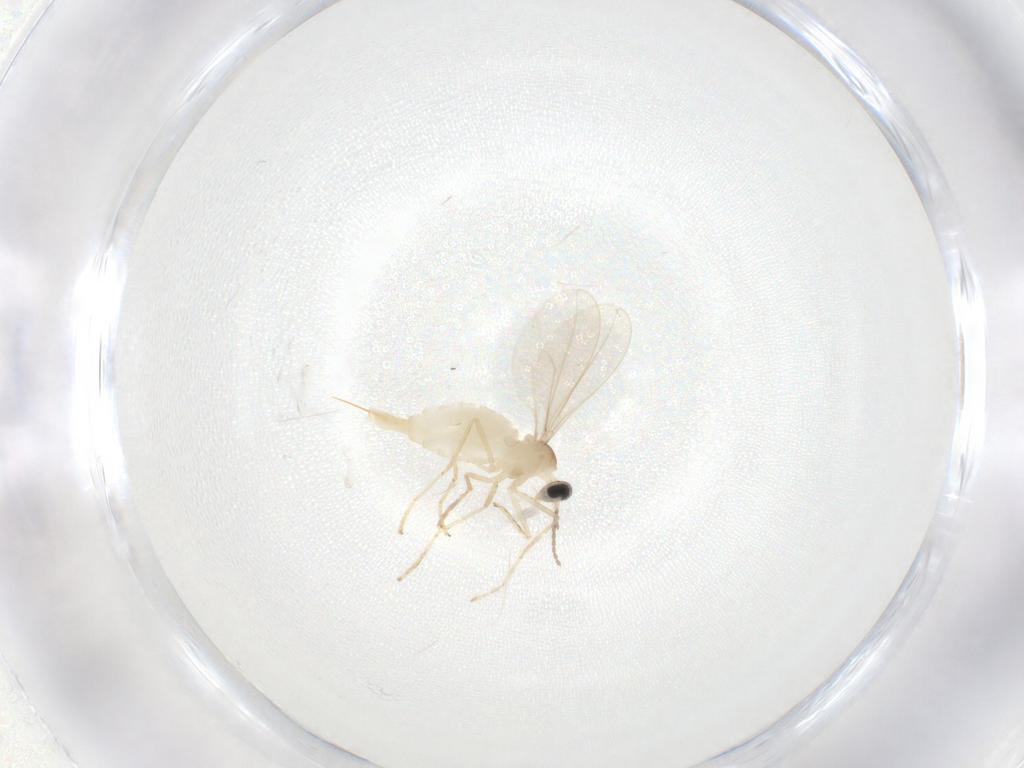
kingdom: Animalia
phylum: Arthropoda
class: Insecta
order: Diptera
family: Cecidomyiidae
